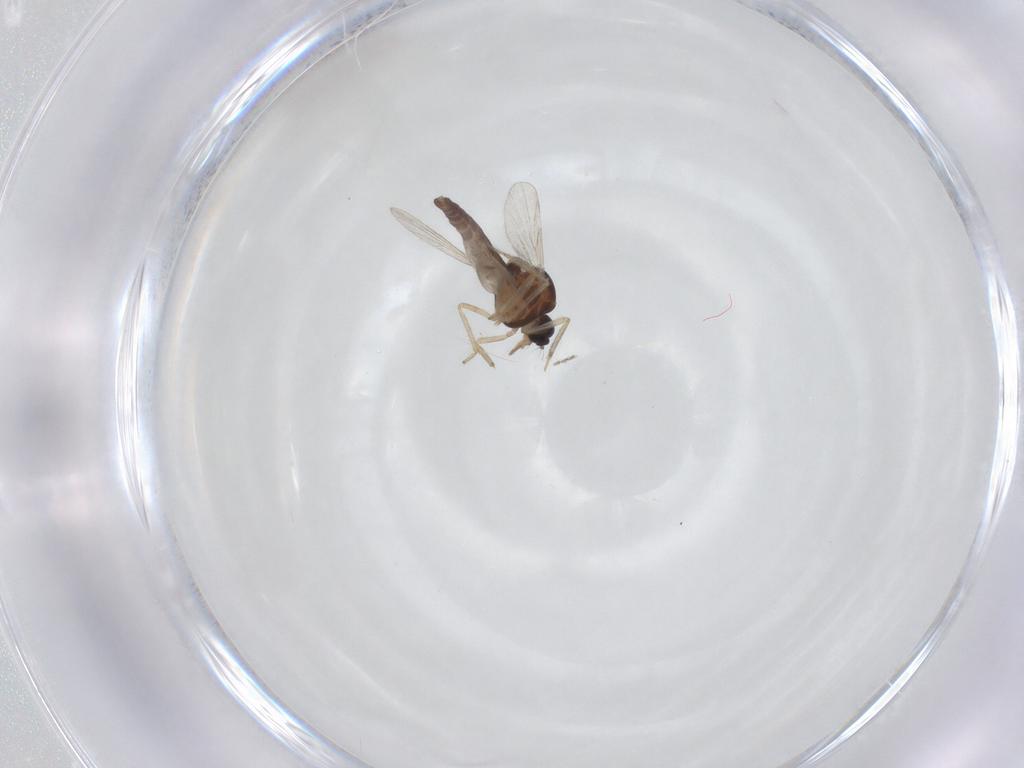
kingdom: Animalia
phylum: Arthropoda
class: Insecta
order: Diptera
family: Ceratopogonidae
